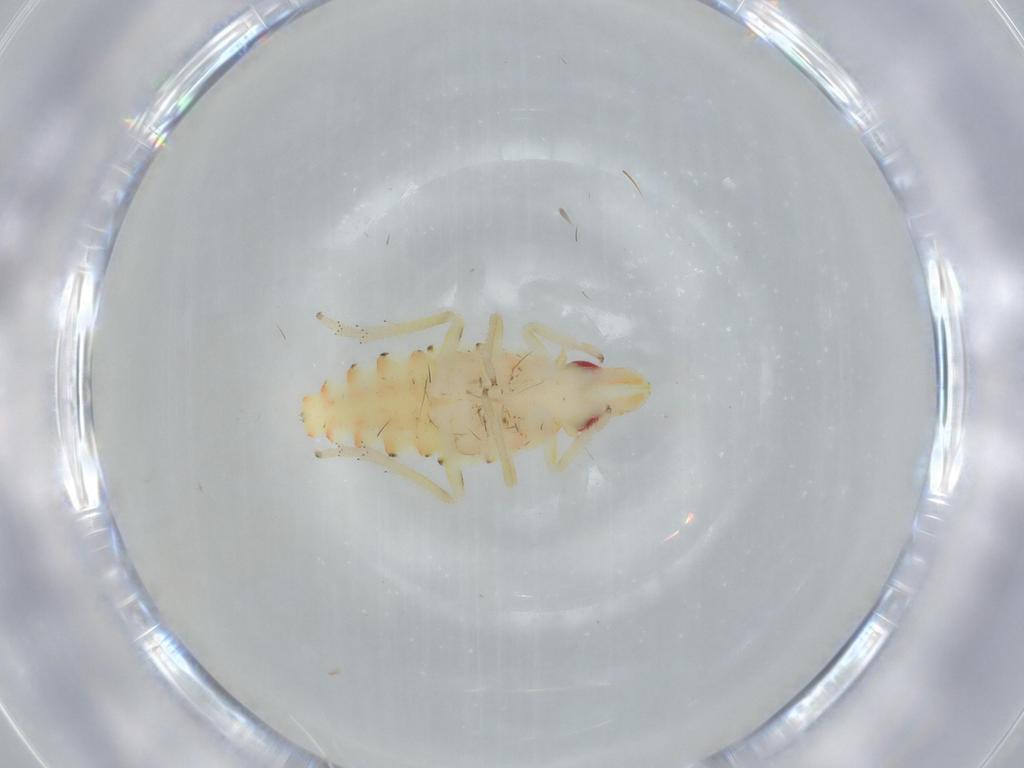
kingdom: Animalia
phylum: Arthropoda
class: Insecta
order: Hemiptera
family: Tropiduchidae
